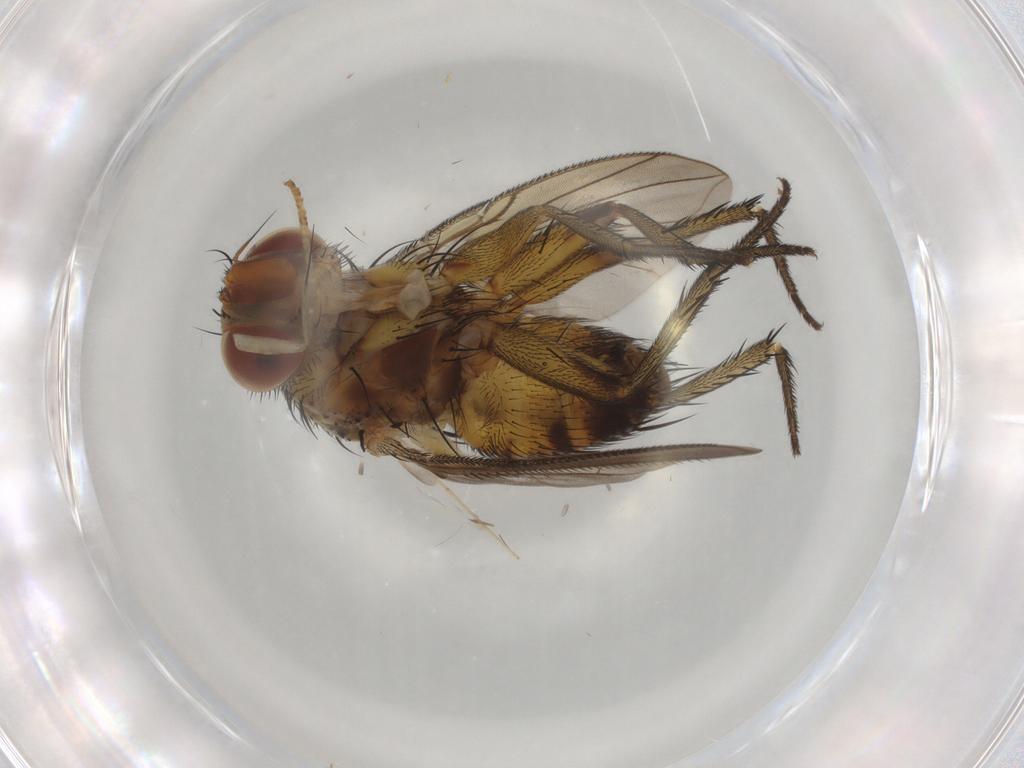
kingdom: Animalia
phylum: Arthropoda
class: Insecta
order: Diptera
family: Tachinidae
